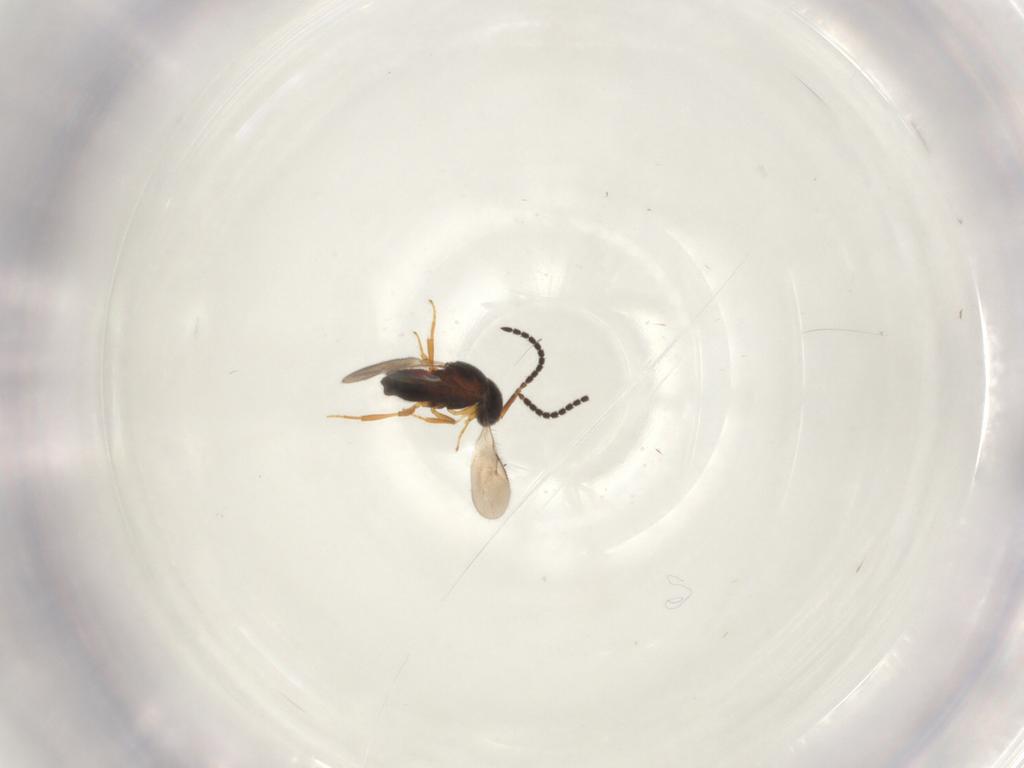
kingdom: Animalia
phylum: Arthropoda
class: Insecta
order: Hymenoptera
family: Scelionidae
